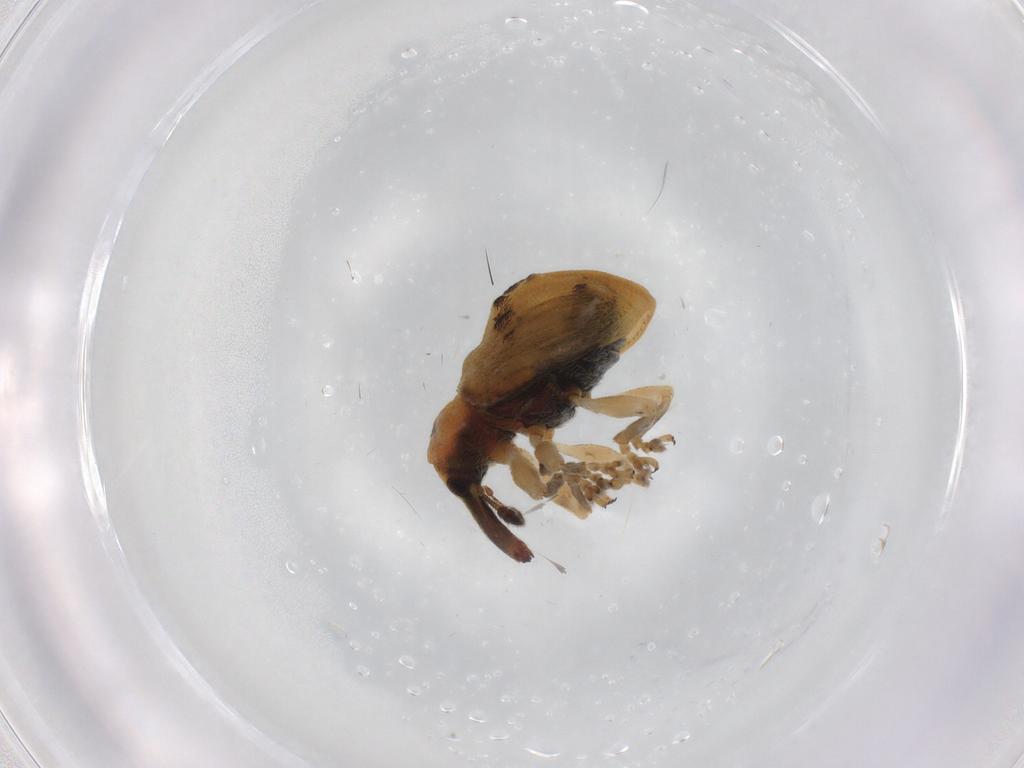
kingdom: Animalia
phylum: Arthropoda
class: Insecta
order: Coleoptera
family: Curculionidae
